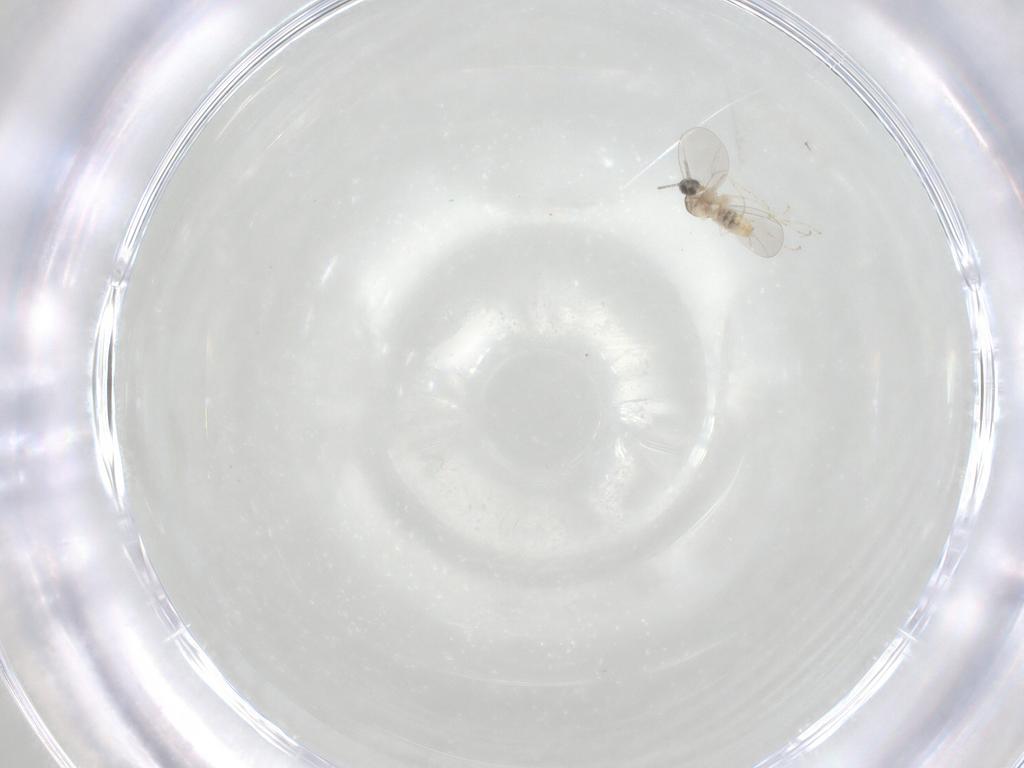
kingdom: Animalia
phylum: Arthropoda
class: Insecta
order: Diptera
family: Cecidomyiidae
